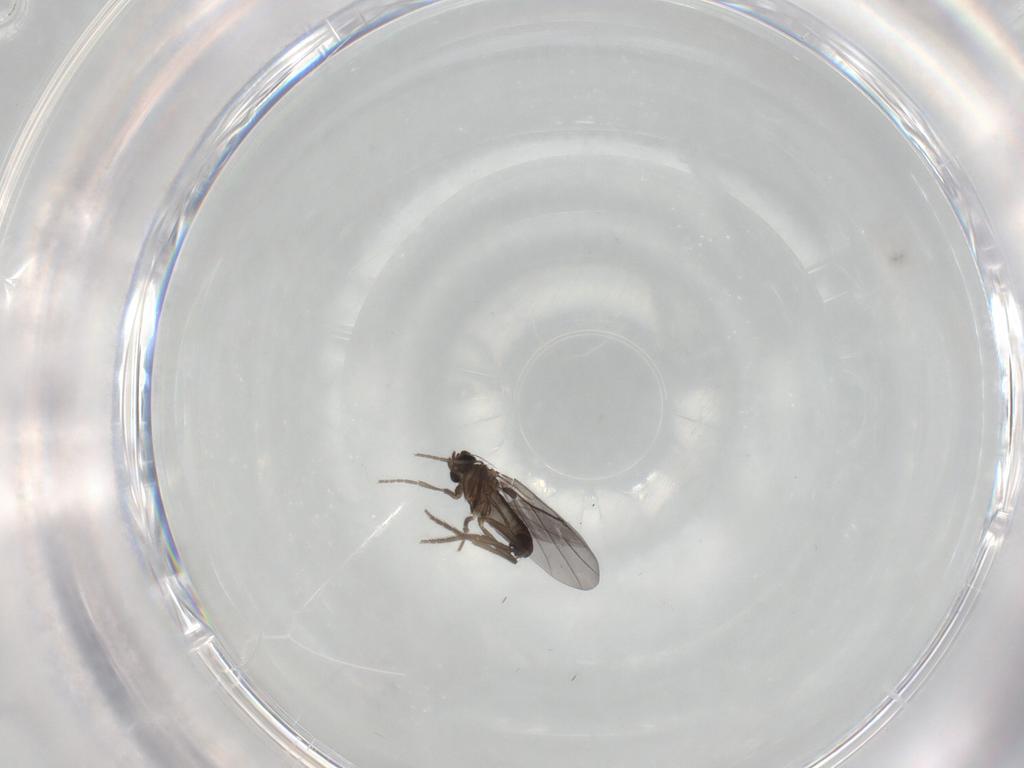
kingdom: Animalia
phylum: Arthropoda
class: Insecta
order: Diptera
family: Phoridae
